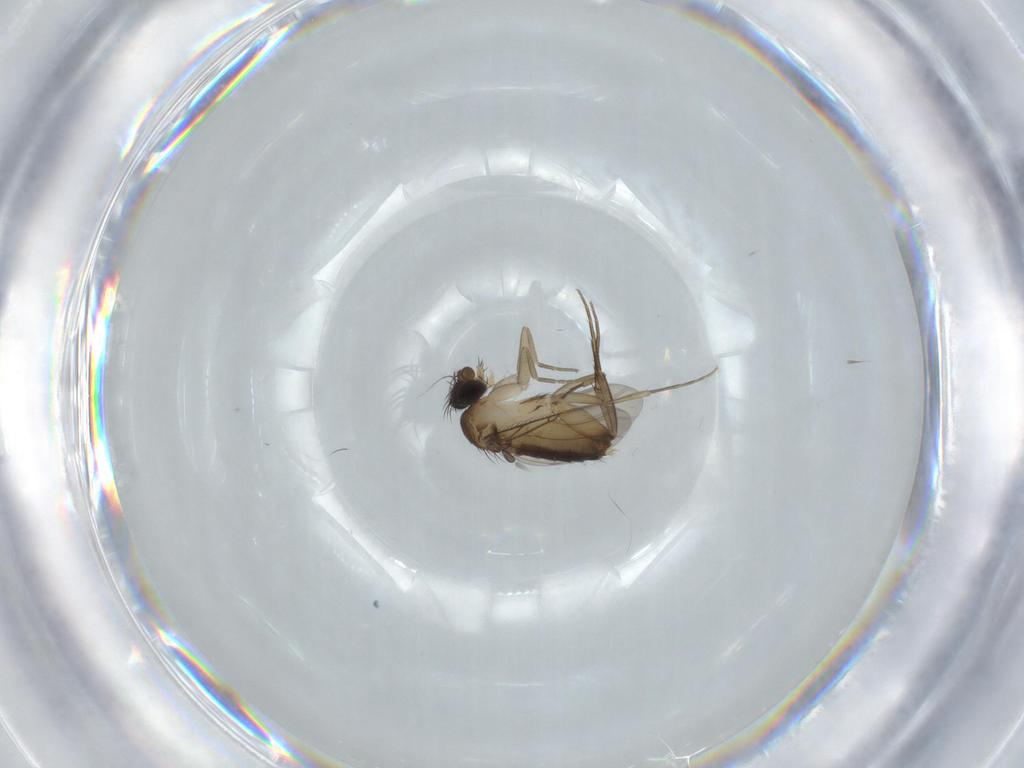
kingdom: Animalia
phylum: Arthropoda
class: Insecta
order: Diptera
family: Phoridae
